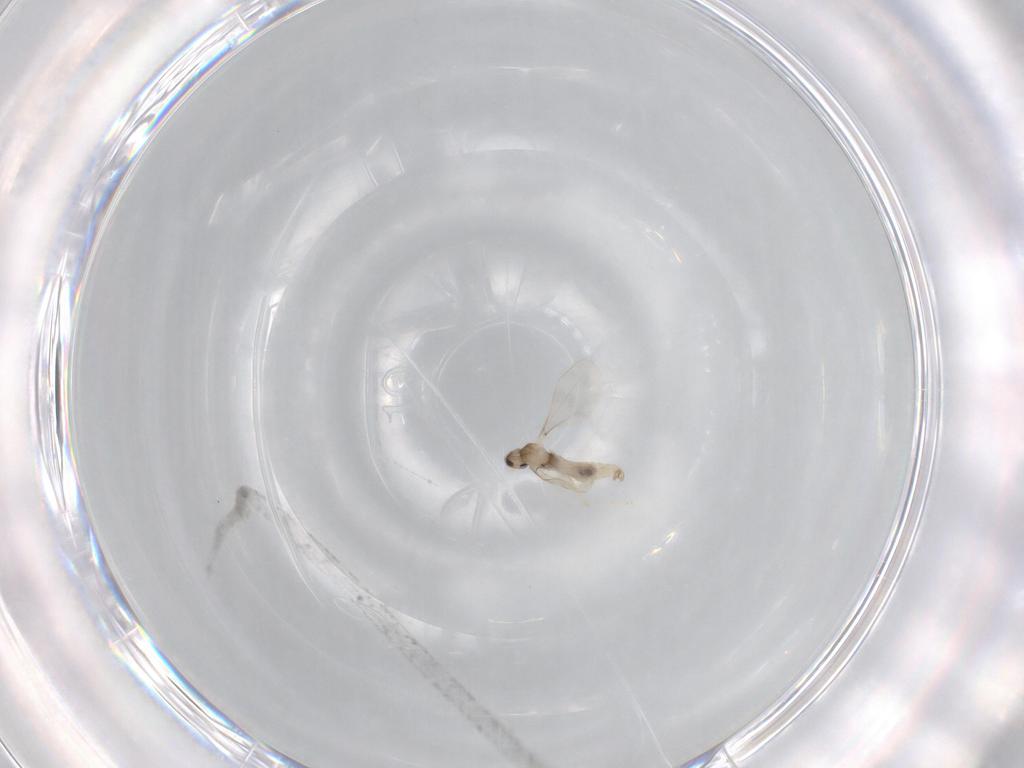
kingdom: Animalia
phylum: Arthropoda
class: Insecta
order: Diptera
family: Cecidomyiidae
